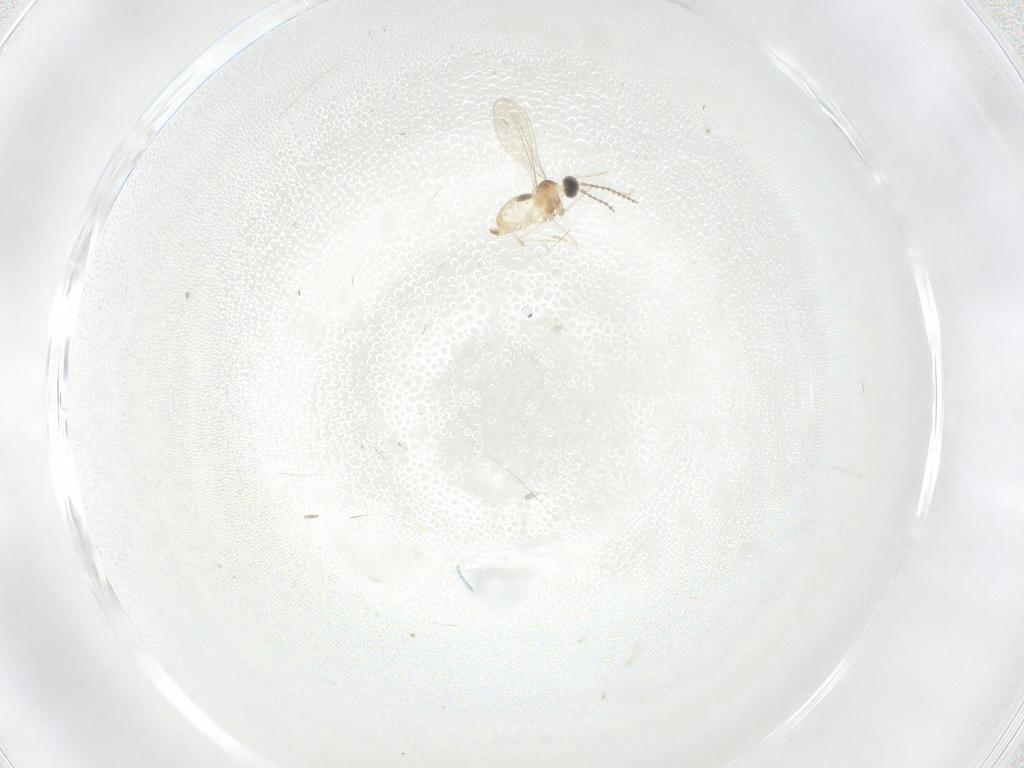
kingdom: Animalia
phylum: Arthropoda
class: Insecta
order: Diptera
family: Cecidomyiidae
